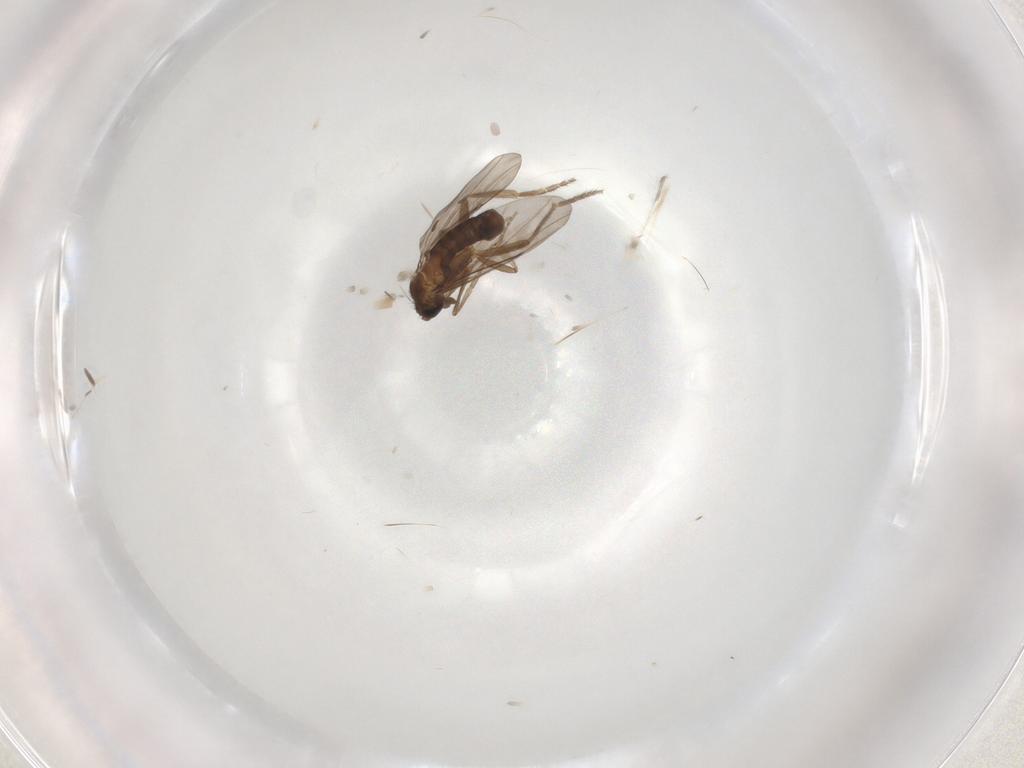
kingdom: Animalia
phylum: Arthropoda
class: Insecta
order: Diptera
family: Phoridae
